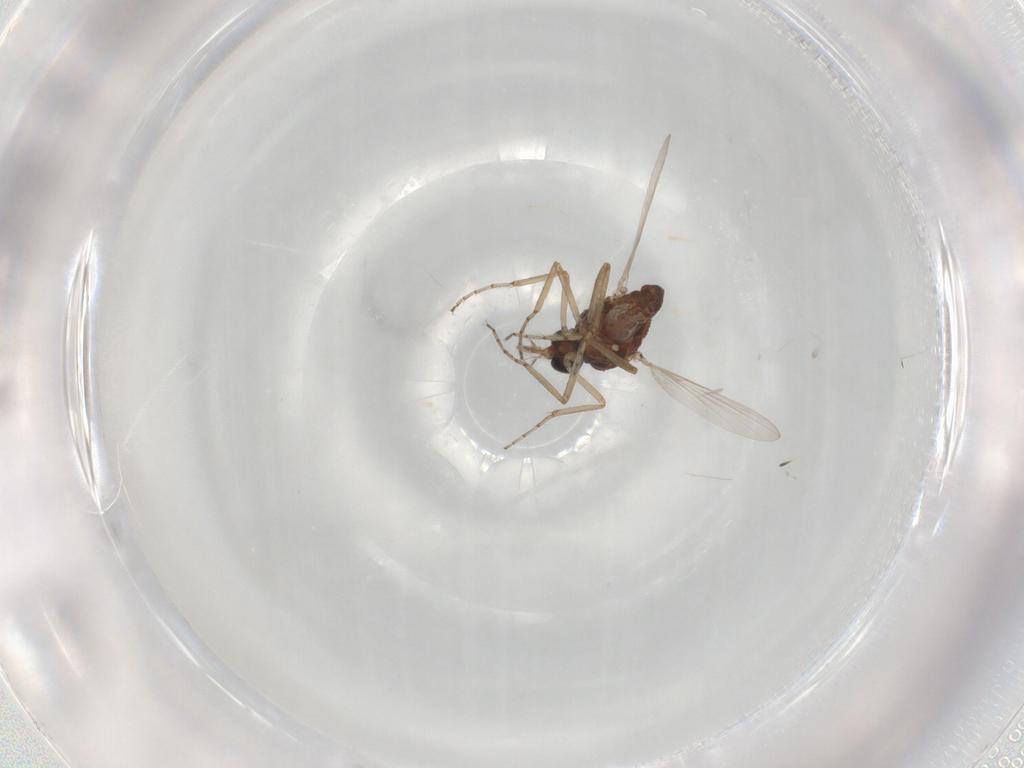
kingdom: Animalia
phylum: Arthropoda
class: Insecta
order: Diptera
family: Ceratopogonidae
